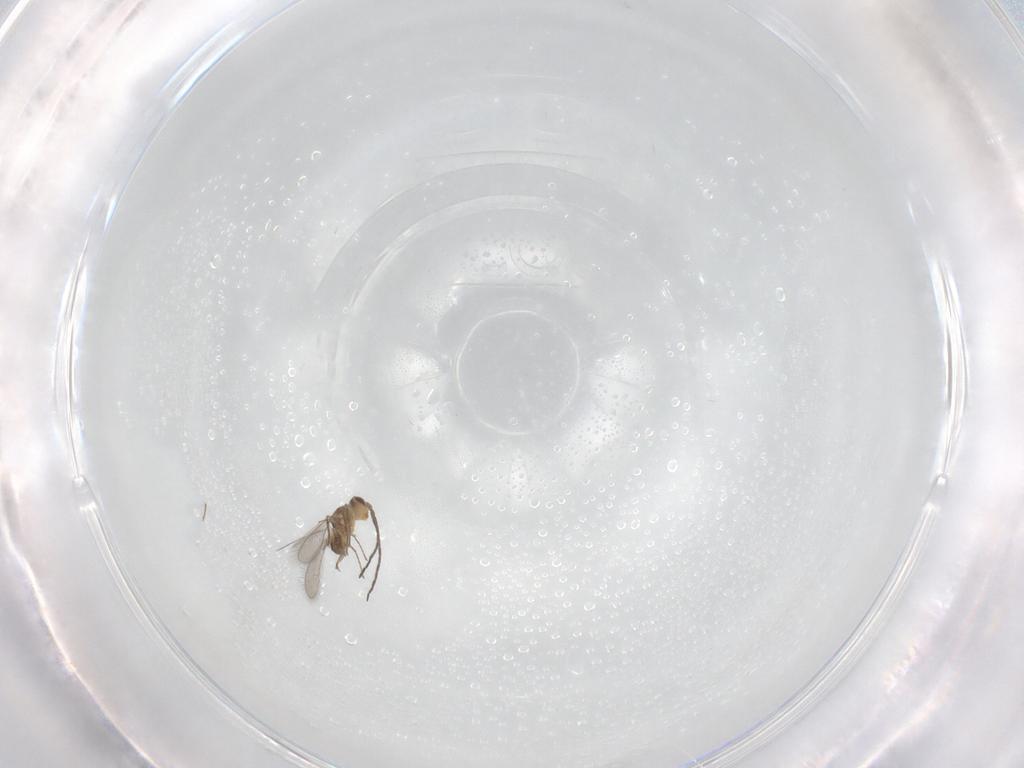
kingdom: Animalia
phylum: Arthropoda
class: Insecta
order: Hymenoptera
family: Mymaridae
